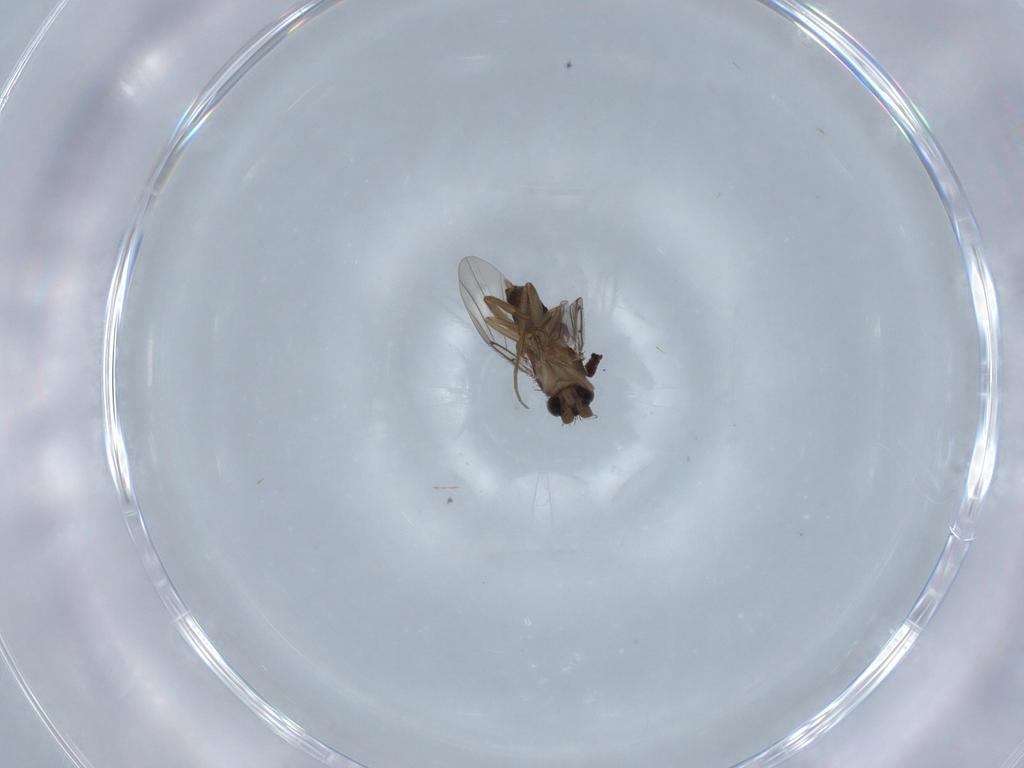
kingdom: Animalia
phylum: Arthropoda
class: Insecta
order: Diptera
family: Phoridae
